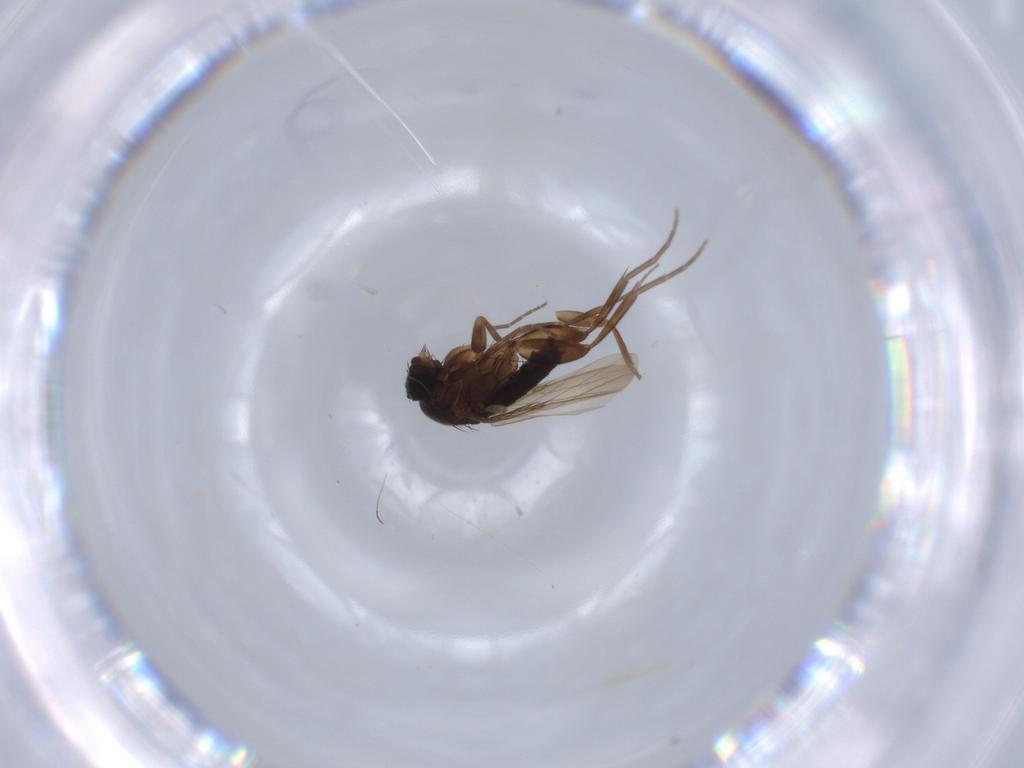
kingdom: Animalia
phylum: Arthropoda
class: Insecta
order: Diptera
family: Phoridae
